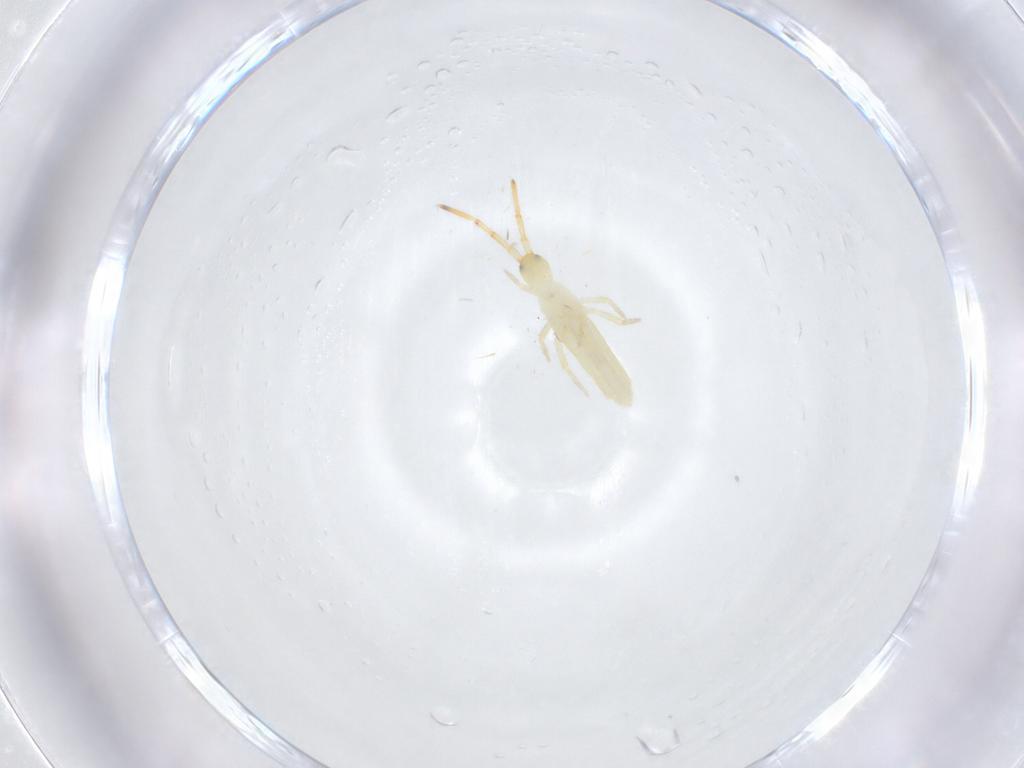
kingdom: Animalia
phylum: Arthropoda
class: Collembola
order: Entomobryomorpha
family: Entomobryidae
